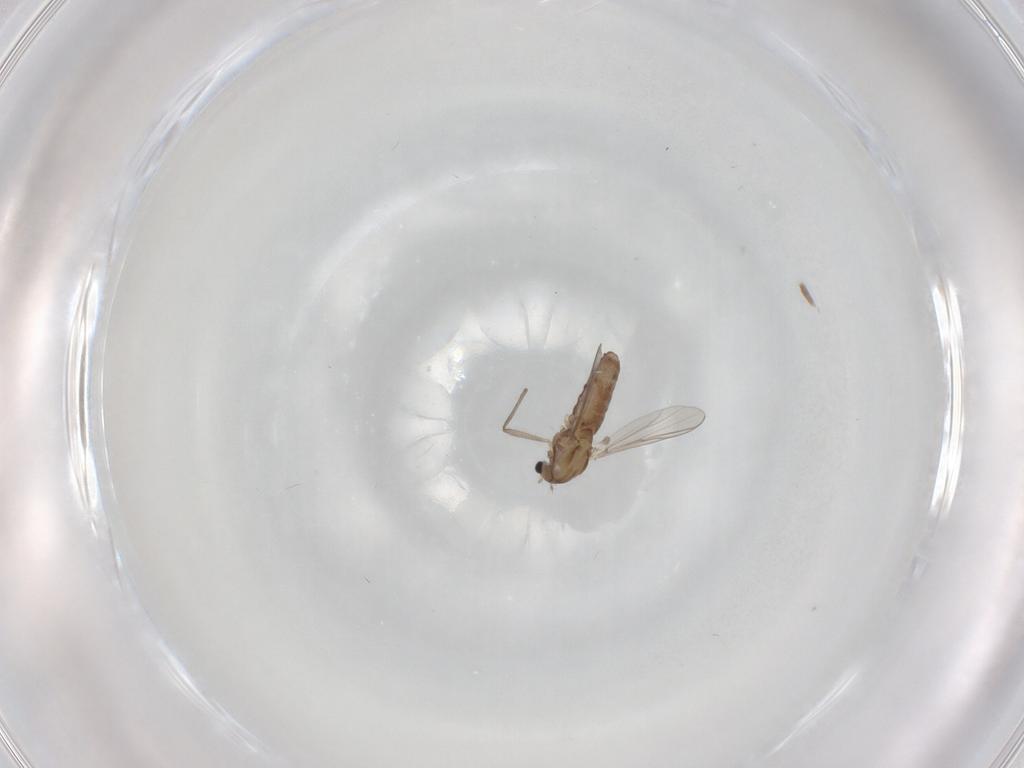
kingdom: Animalia
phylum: Arthropoda
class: Insecta
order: Diptera
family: Chironomidae
